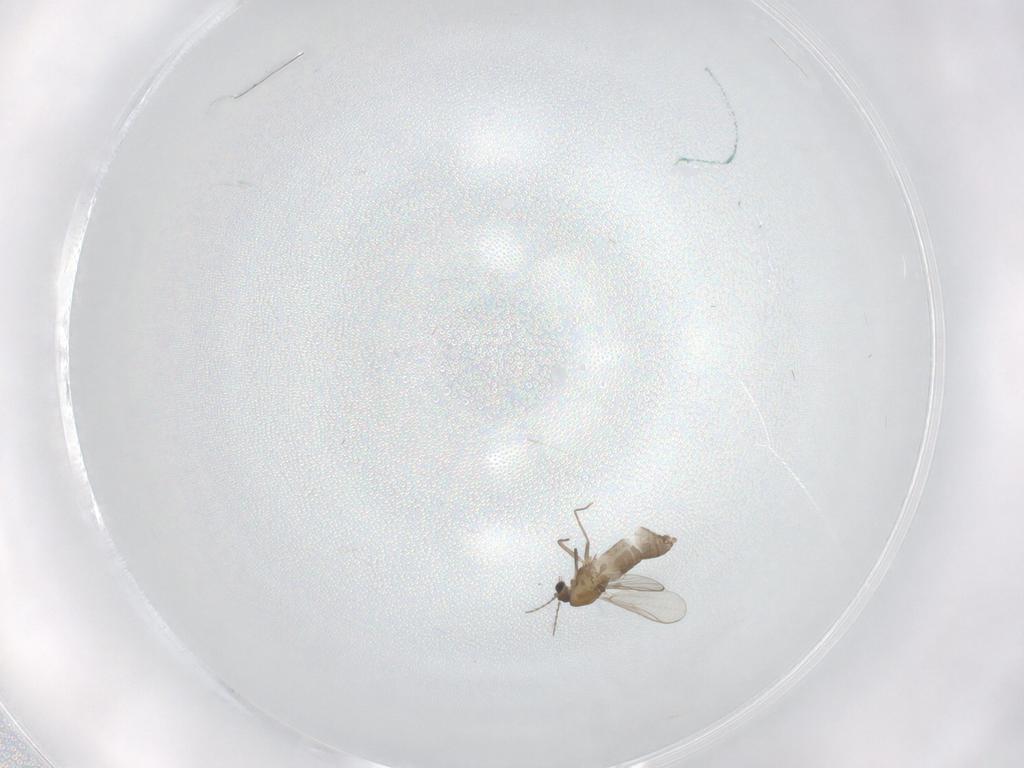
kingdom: Animalia
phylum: Arthropoda
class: Insecta
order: Diptera
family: Chironomidae
